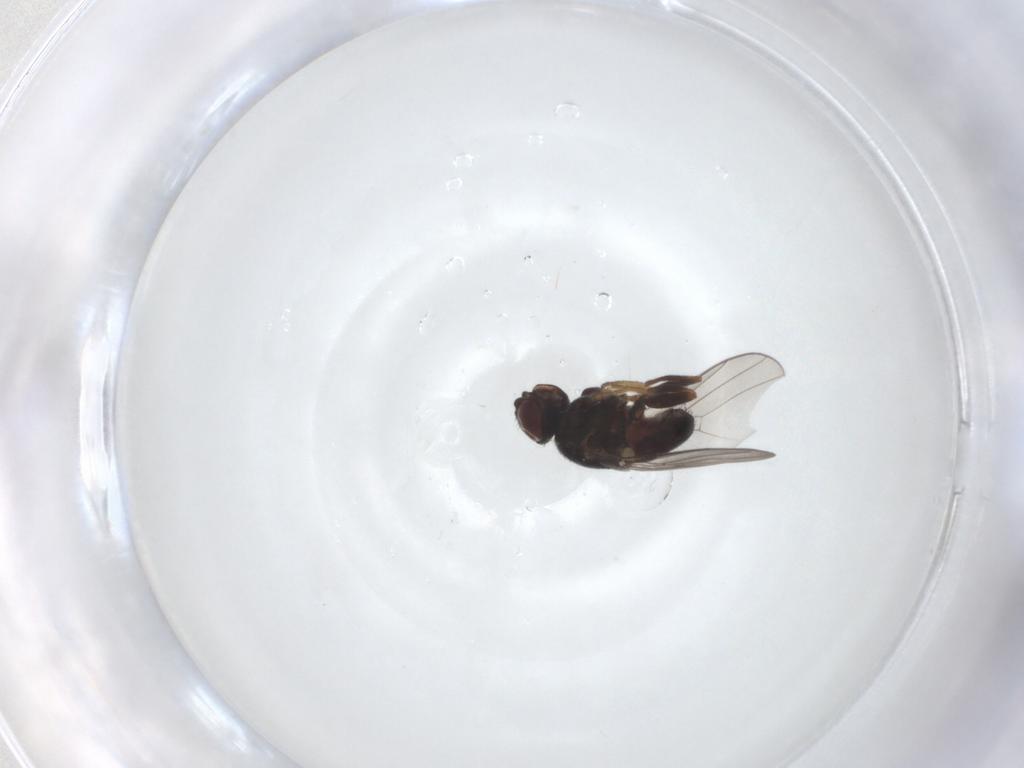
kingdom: Animalia
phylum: Arthropoda
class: Insecta
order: Diptera
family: Chloropidae
